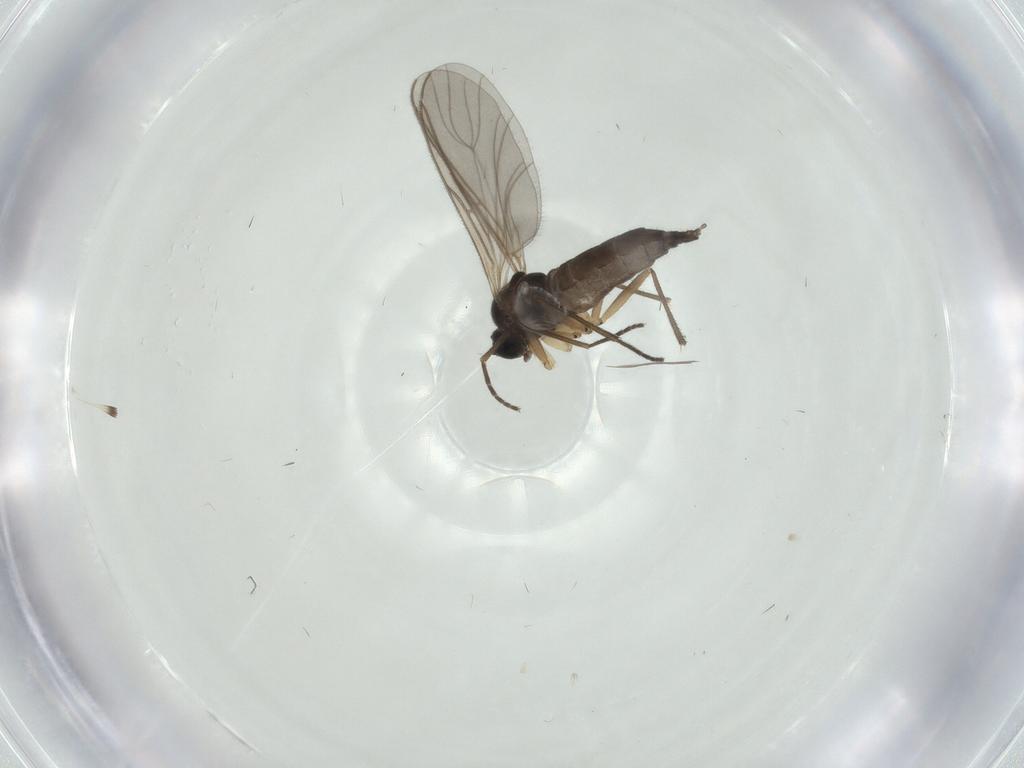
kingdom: Animalia
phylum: Arthropoda
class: Insecta
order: Diptera
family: Sciaridae
